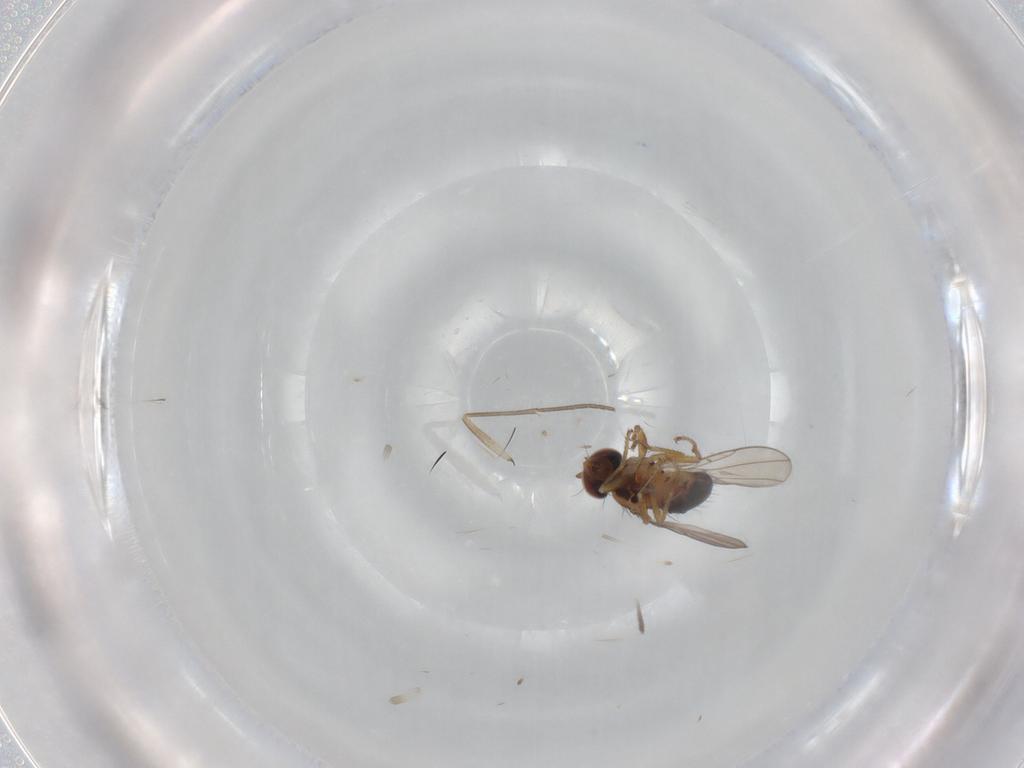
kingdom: Animalia
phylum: Arthropoda
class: Insecta
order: Diptera
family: Ephydridae
